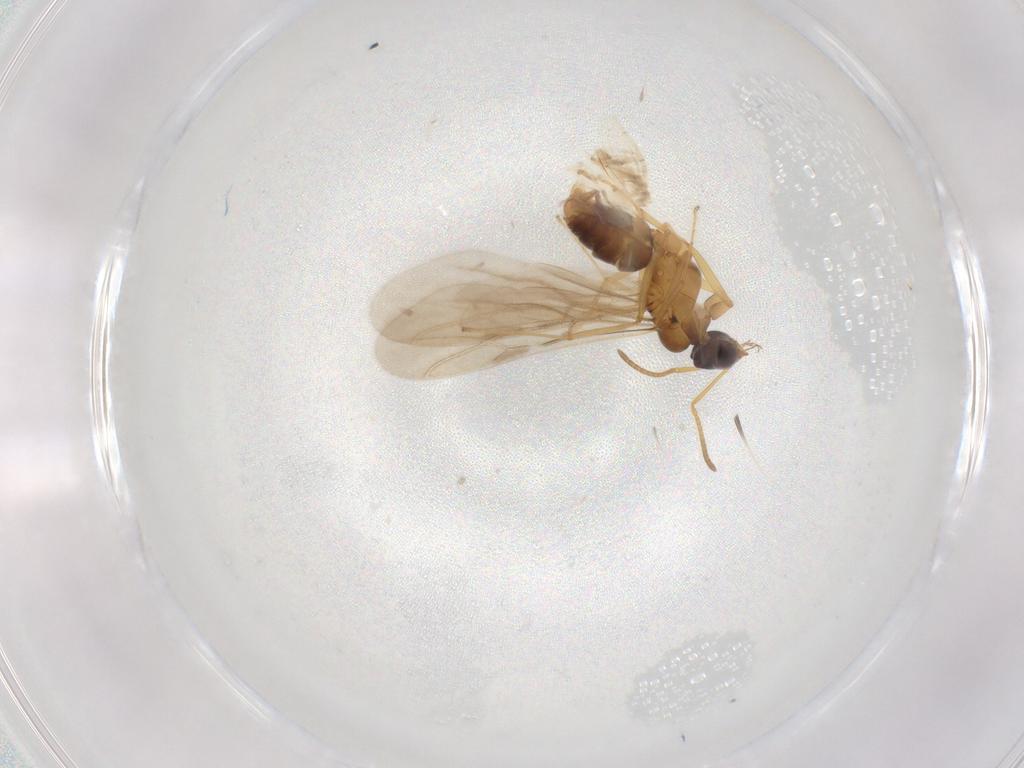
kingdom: Animalia
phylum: Arthropoda
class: Insecta
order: Hymenoptera
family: Formicidae
